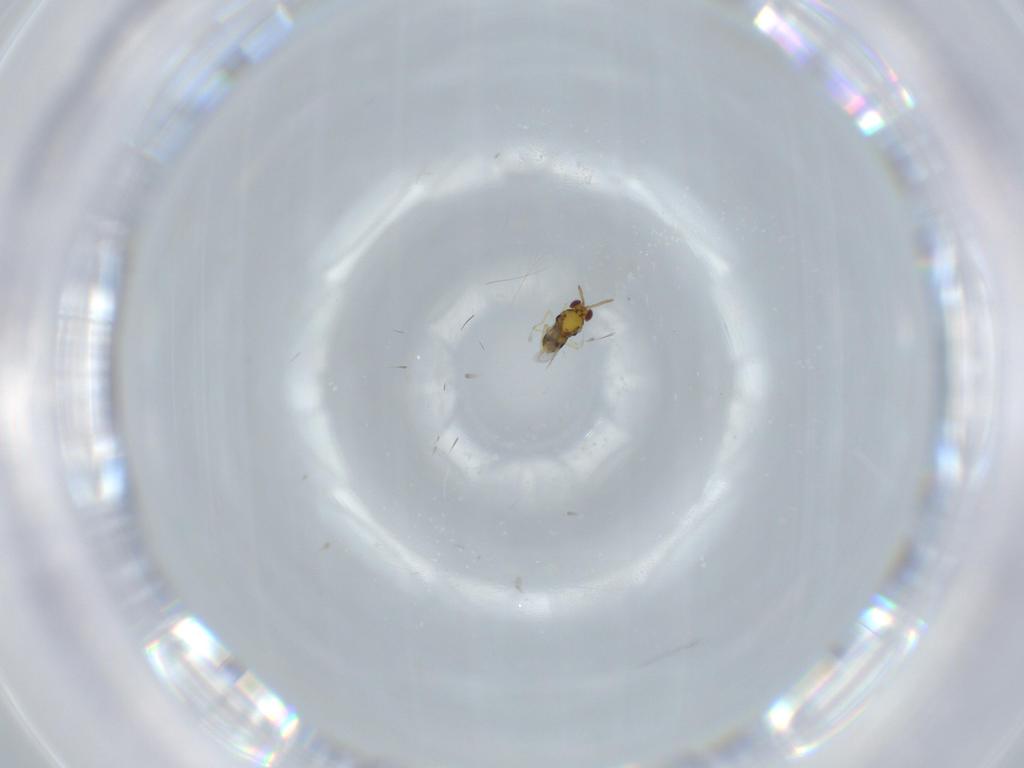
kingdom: Animalia
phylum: Arthropoda
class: Insecta
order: Hymenoptera
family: Aphelinidae
